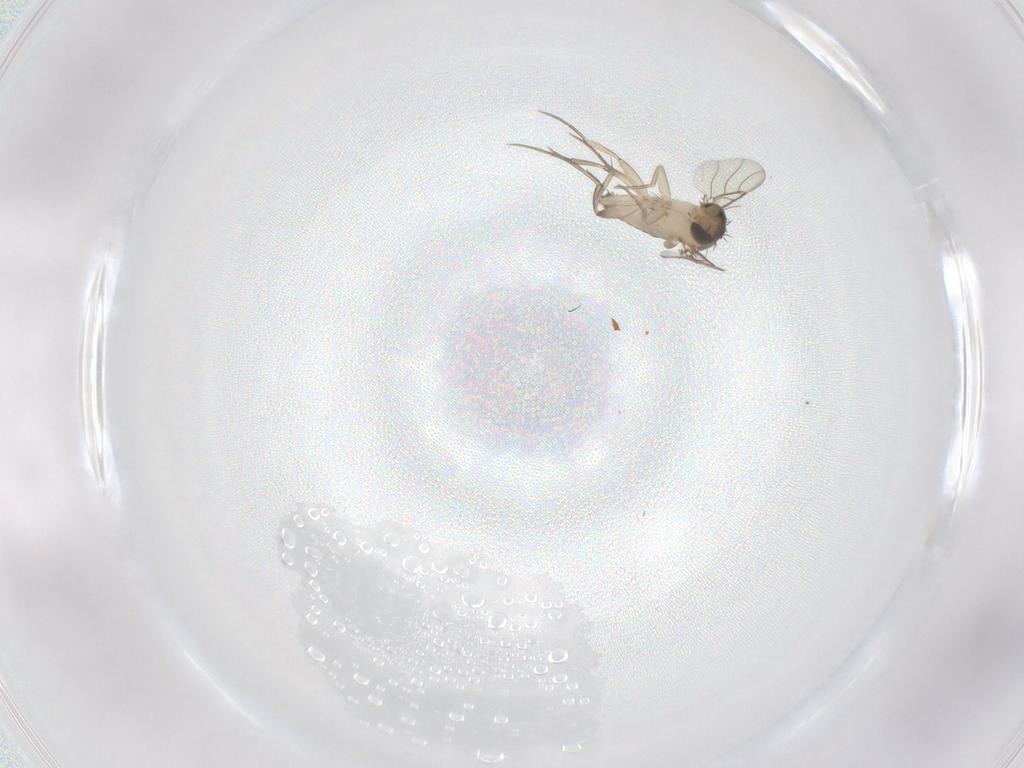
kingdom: Animalia
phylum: Arthropoda
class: Insecta
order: Diptera
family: Phoridae
